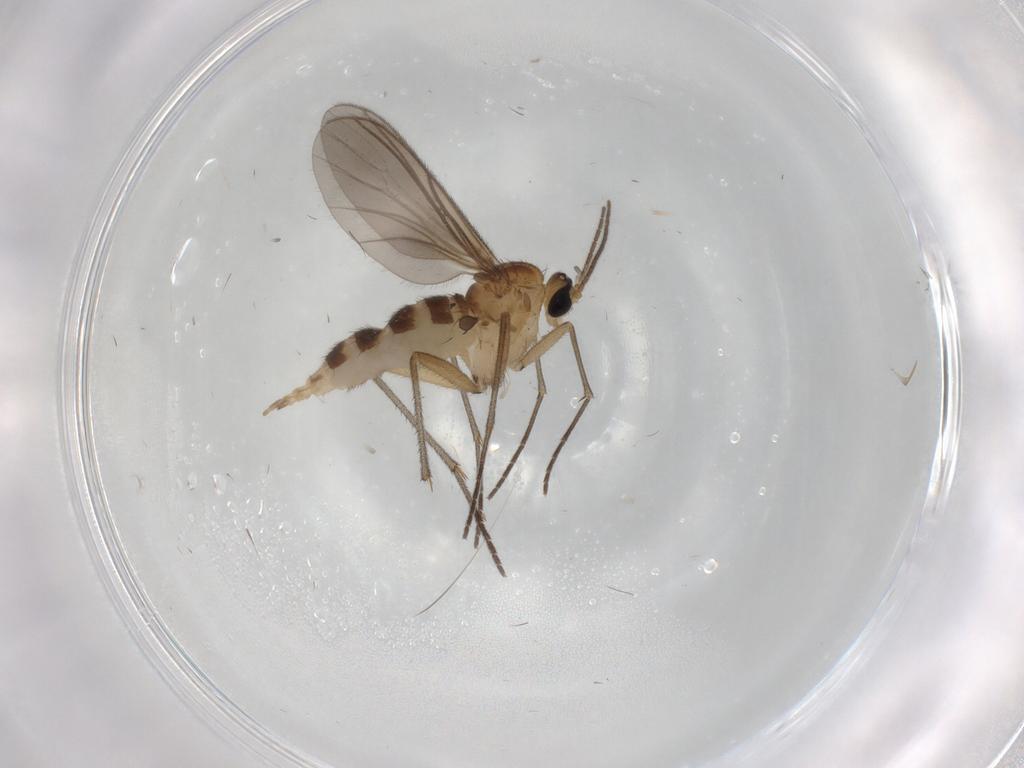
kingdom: Animalia
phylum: Arthropoda
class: Insecta
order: Diptera
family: Sciaridae
